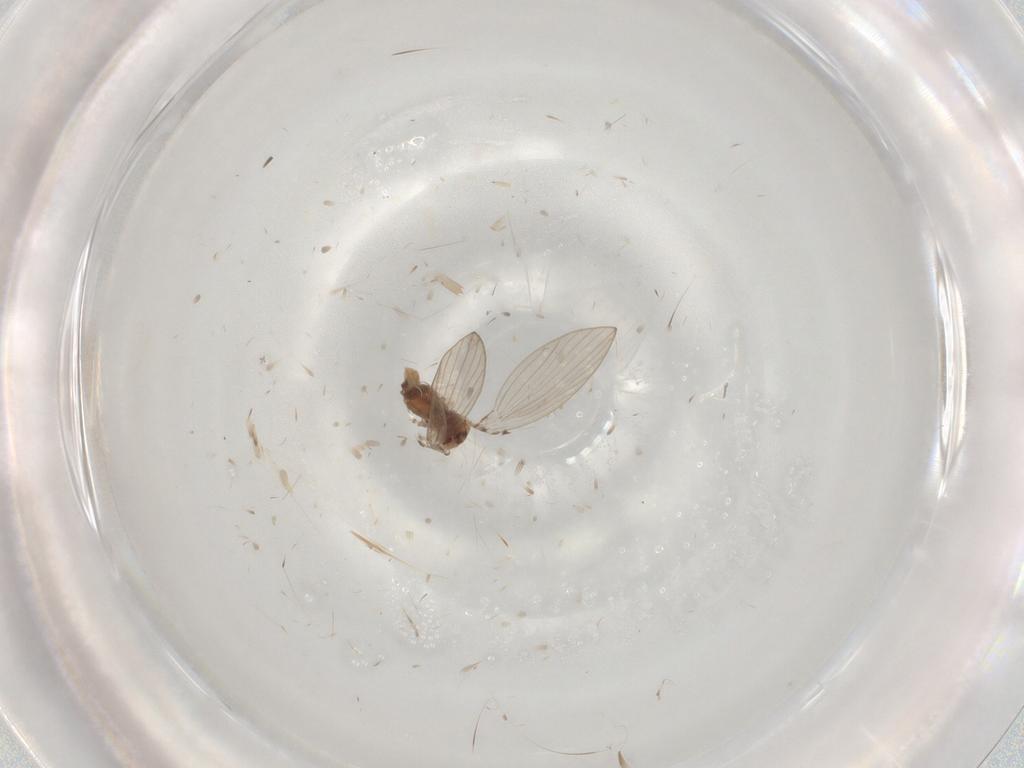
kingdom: Animalia
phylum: Arthropoda
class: Insecta
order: Diptera
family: Psychodidae
